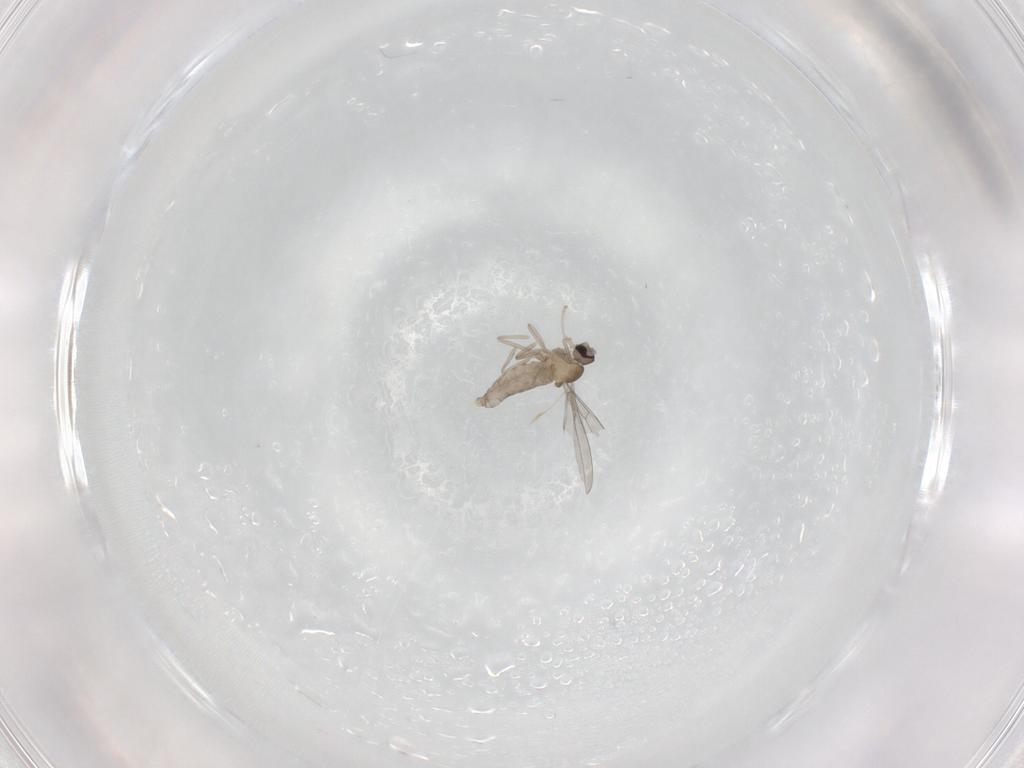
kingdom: Animalia
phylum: Arthropoda
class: Insecta
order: Diptera
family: Cecidomyiidae
